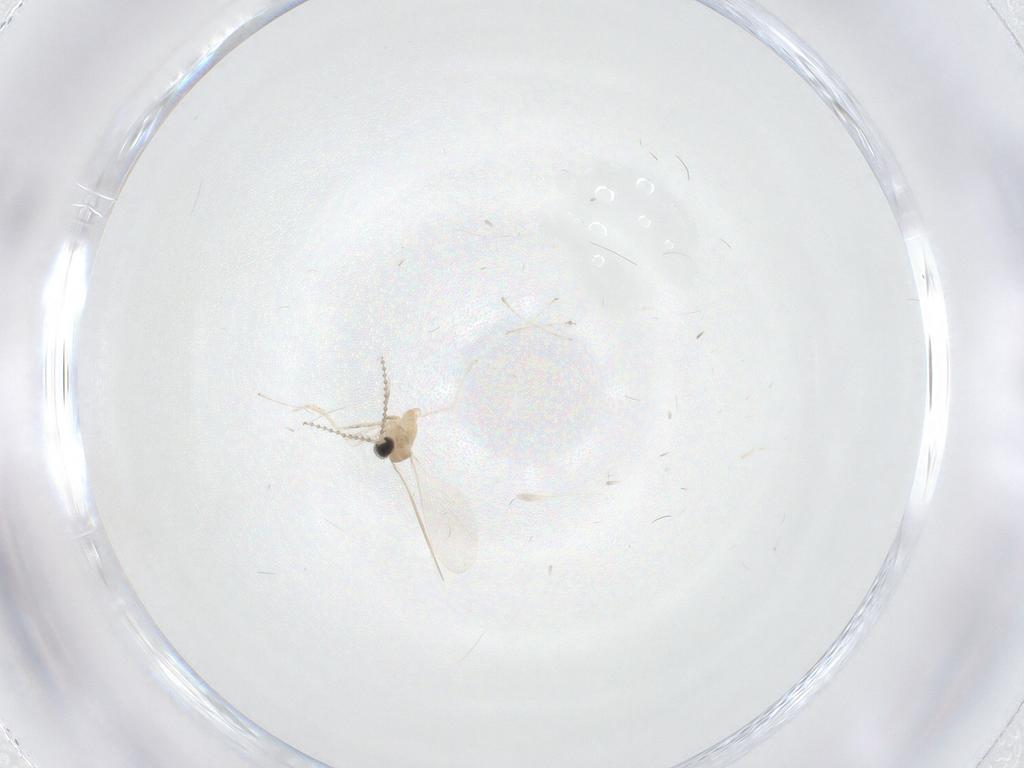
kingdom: Animalia
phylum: Arthropoda
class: Insecta
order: Diptera
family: Cecidomyiidae
